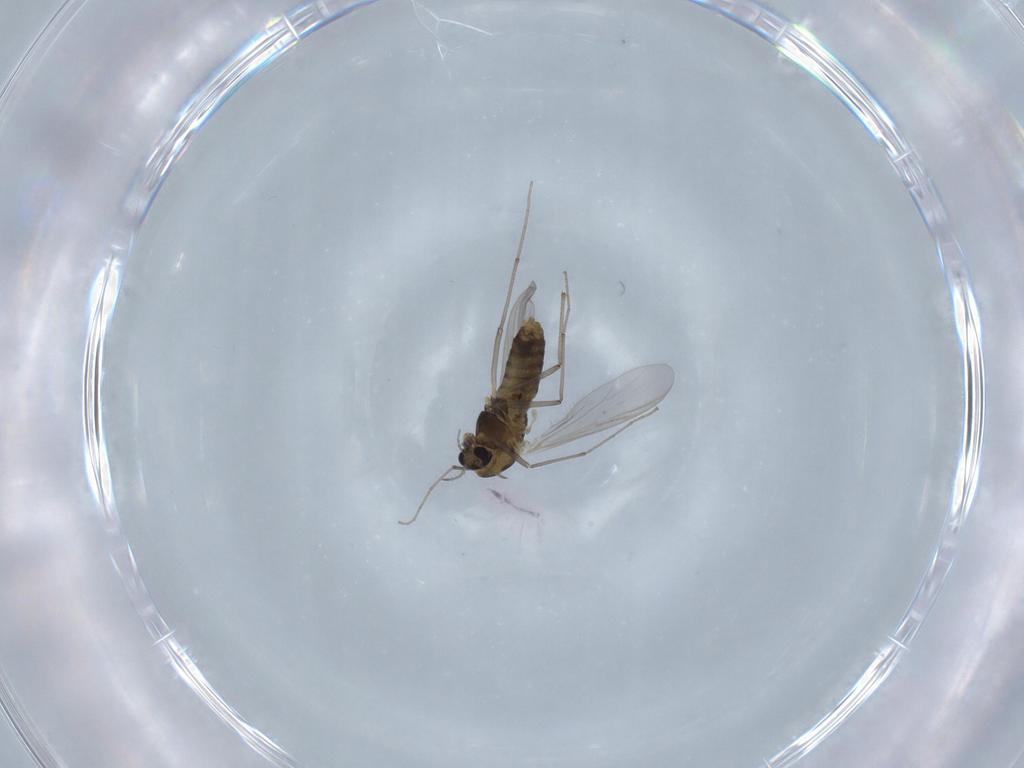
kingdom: Animalia
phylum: Arthropoda
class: Insecta
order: Diptera
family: Chironomidae
